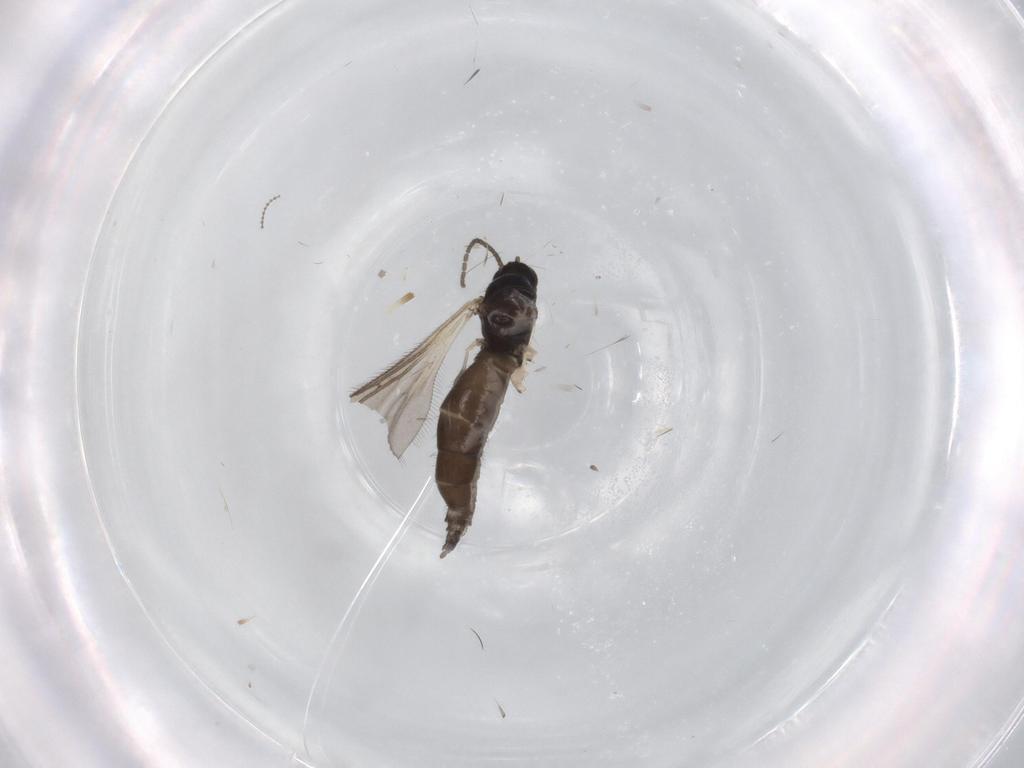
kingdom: Animalia
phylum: Arthropoda
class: Insecta
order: Diptera
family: Sciaridae
